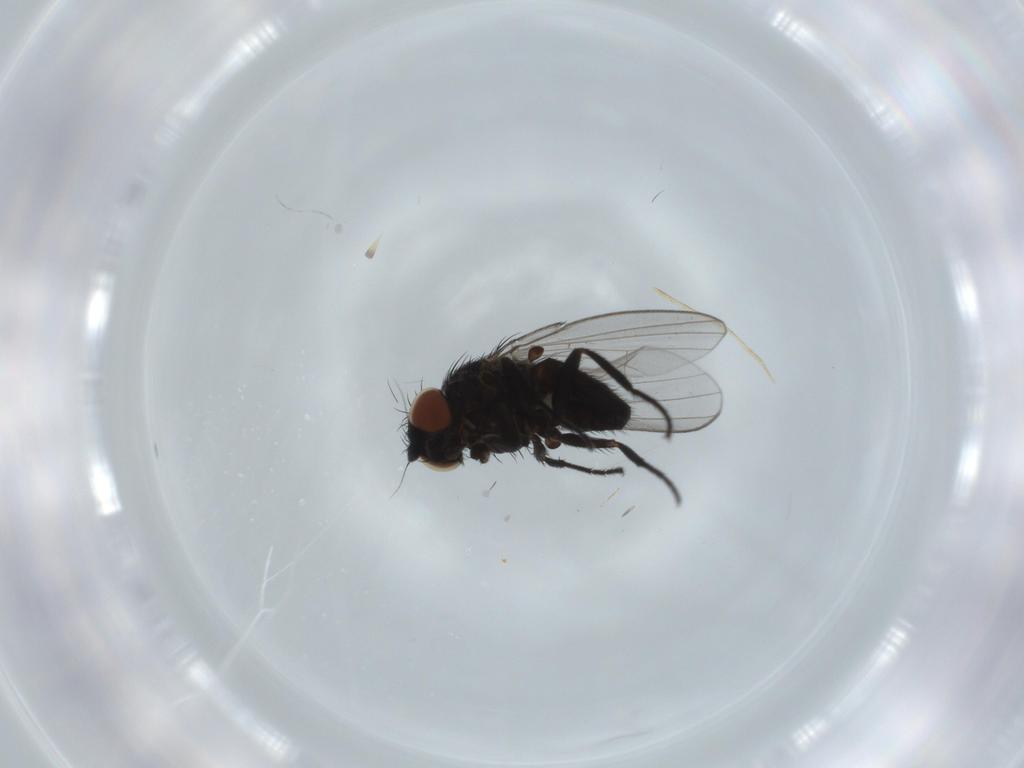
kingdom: Animalia
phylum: Arthropoda
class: Insecta
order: Diptera
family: Milichiidae
